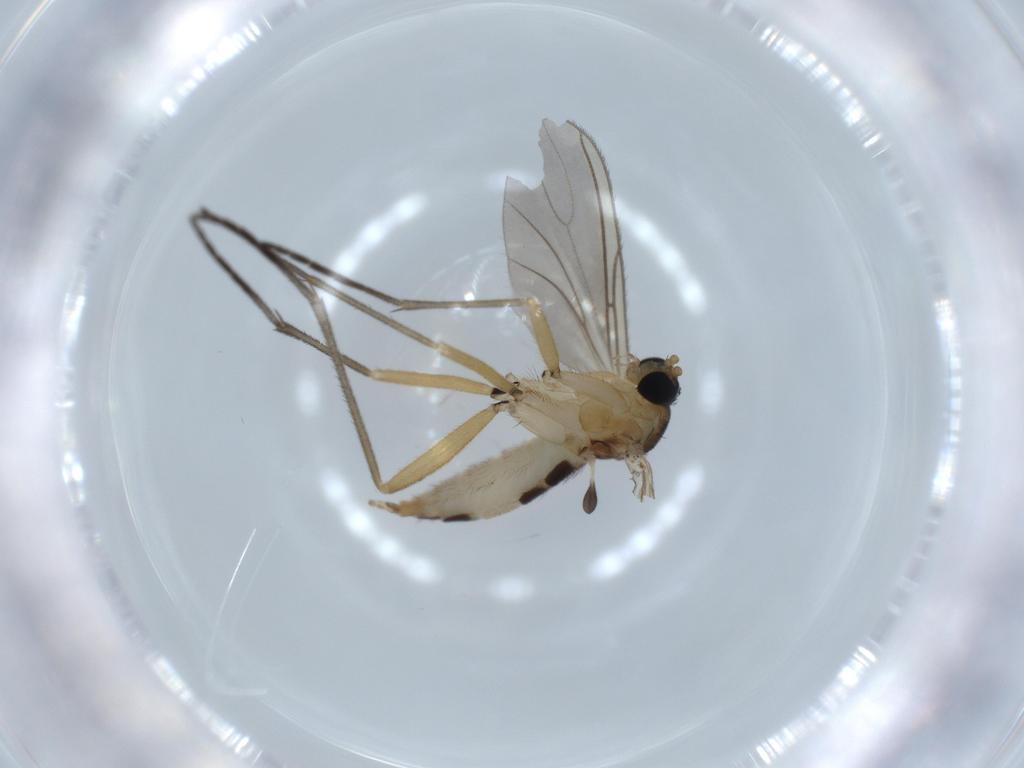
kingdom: Animalia
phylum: Arthropoda
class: Insecta
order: Diptera
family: Sciaridae
